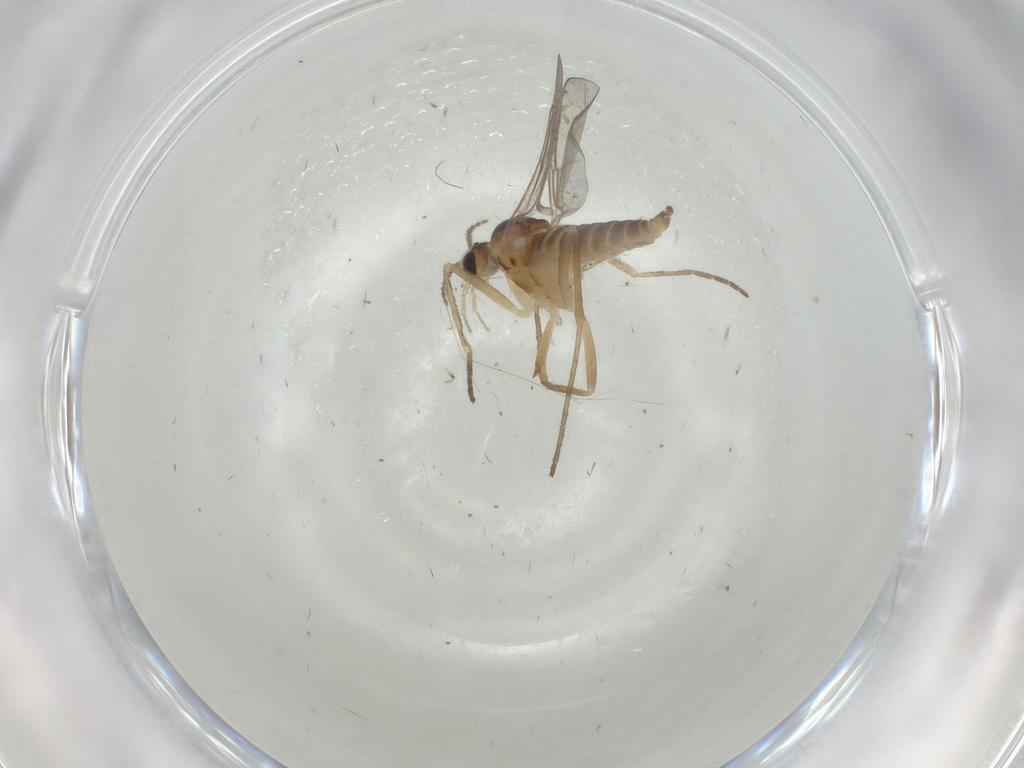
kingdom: Animalia
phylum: Arthropoda
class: Insecta
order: Diptera
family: Cecidomyiidae
